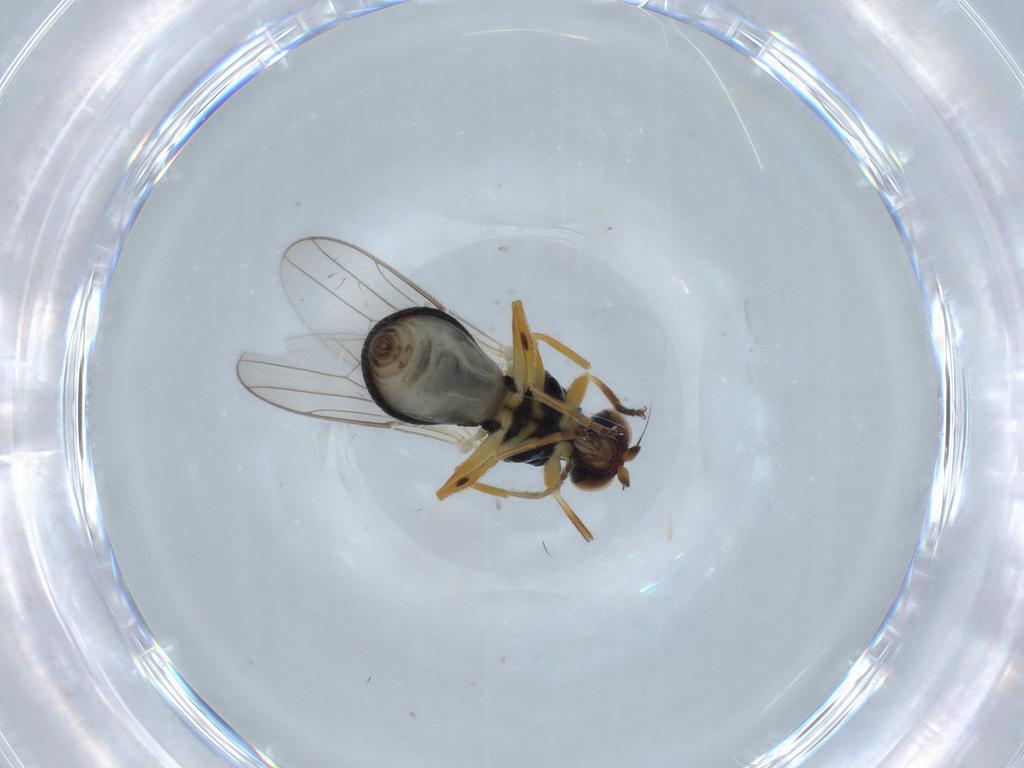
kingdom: Animalia
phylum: Arthropoda
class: Insecta
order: Diptera
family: Chloropidae
